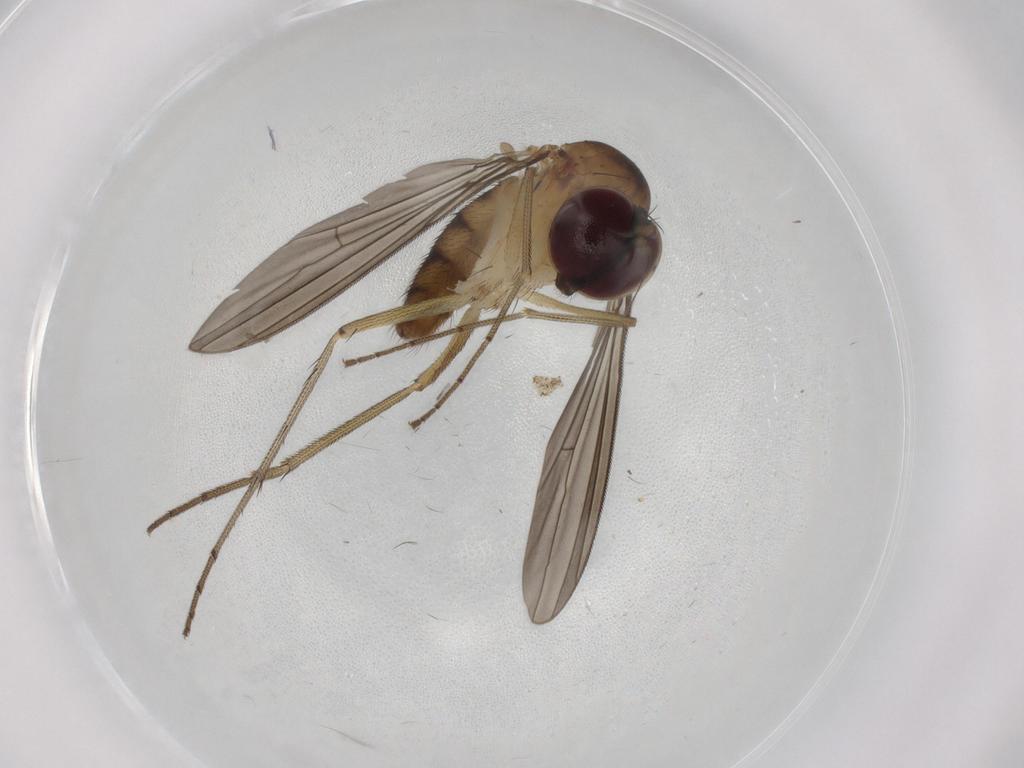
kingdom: Animalia
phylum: Arthropoda
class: Insecta
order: Diptera
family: Dolichopodidae
